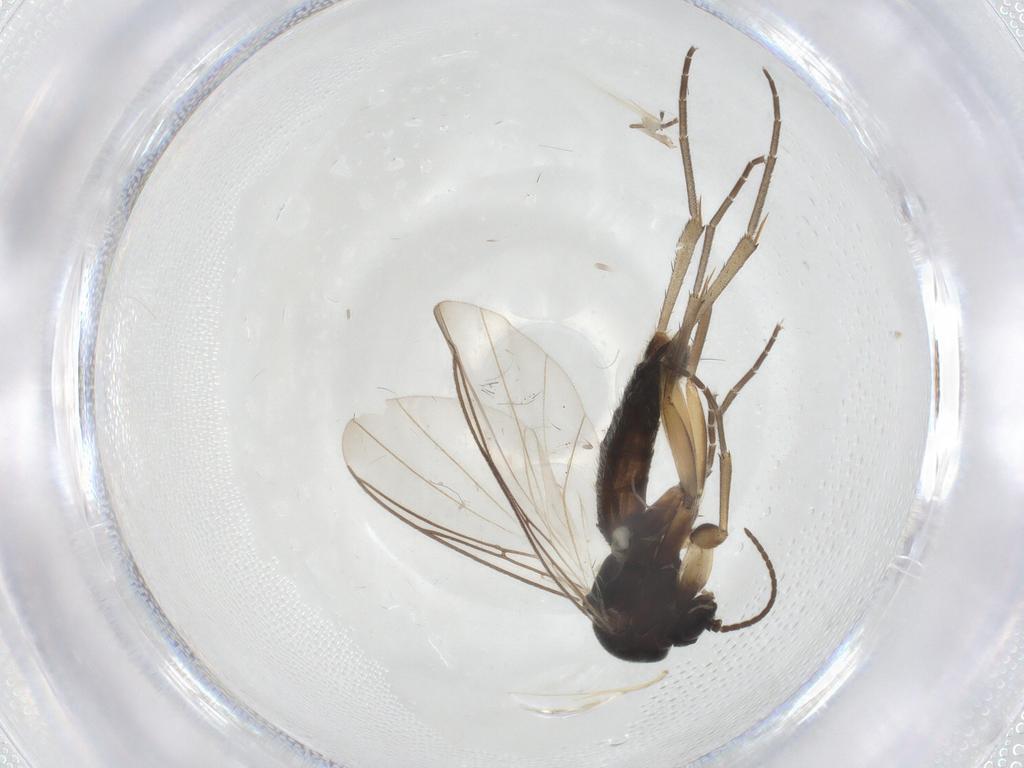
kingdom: Animalia
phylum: Arthropoda
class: Insecta
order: Diptera
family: Mycetophilidae
